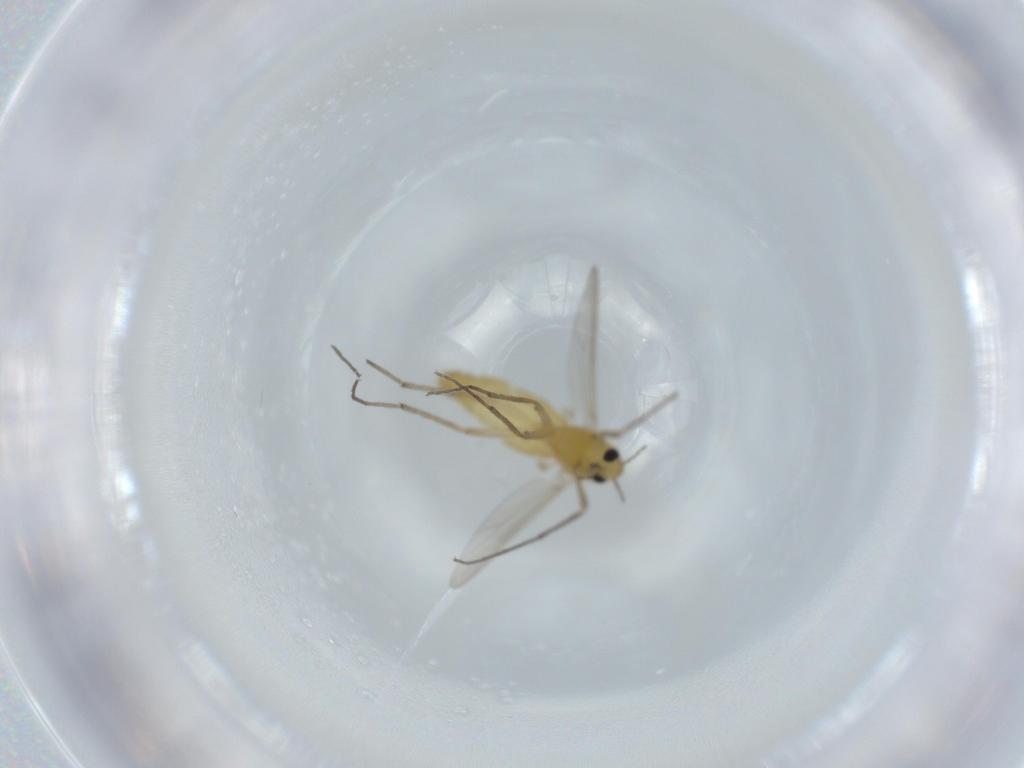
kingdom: Animalia
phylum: Arthropoda
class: Insecta
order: Diptera
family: Chironomidae
